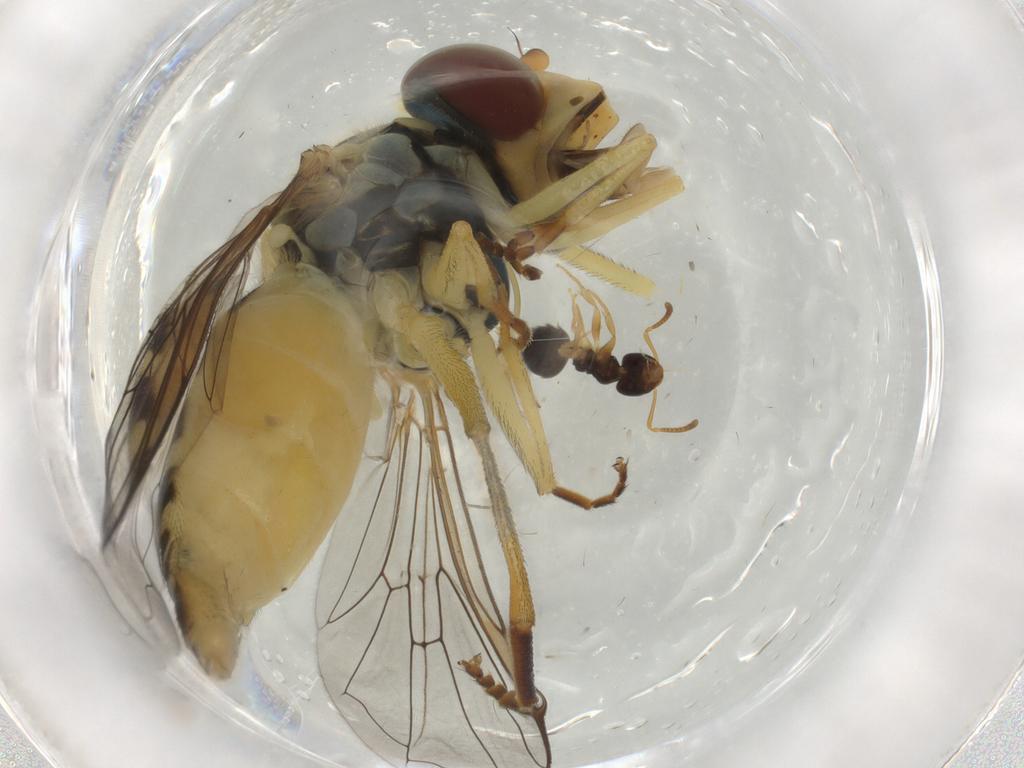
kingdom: Animalia
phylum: Arthropoda
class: Insecta
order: Diptera
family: Syrphidae
